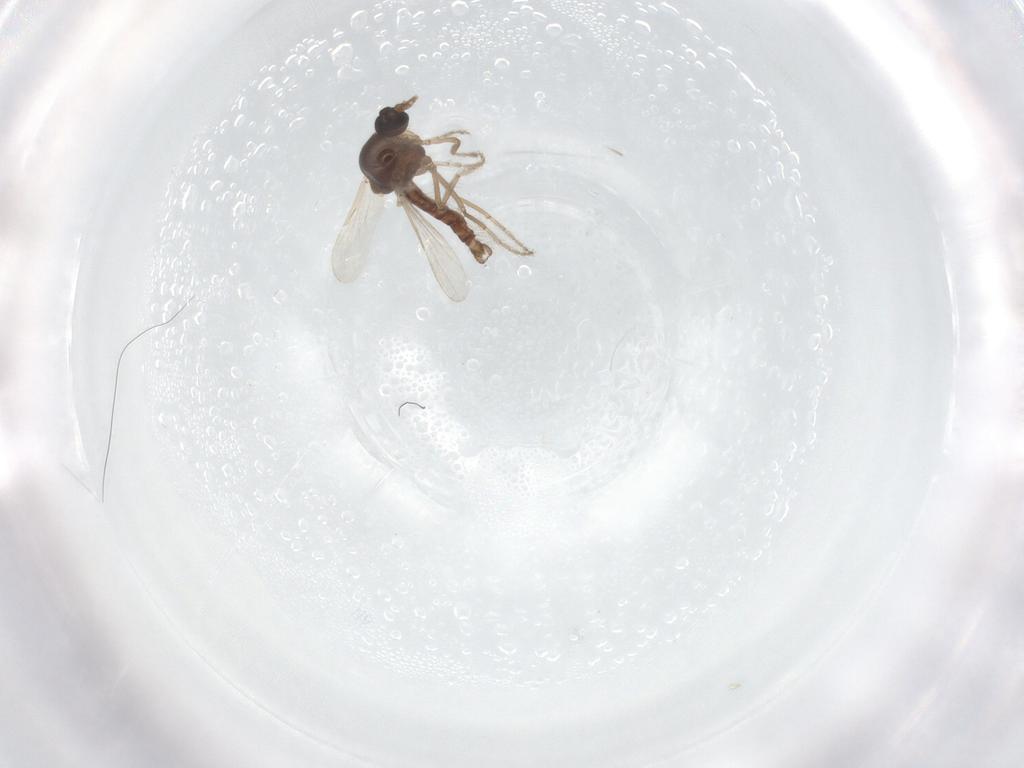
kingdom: Animalia
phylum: Arthropoda
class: Insecta
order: Diptera
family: Ceratopogonidae
